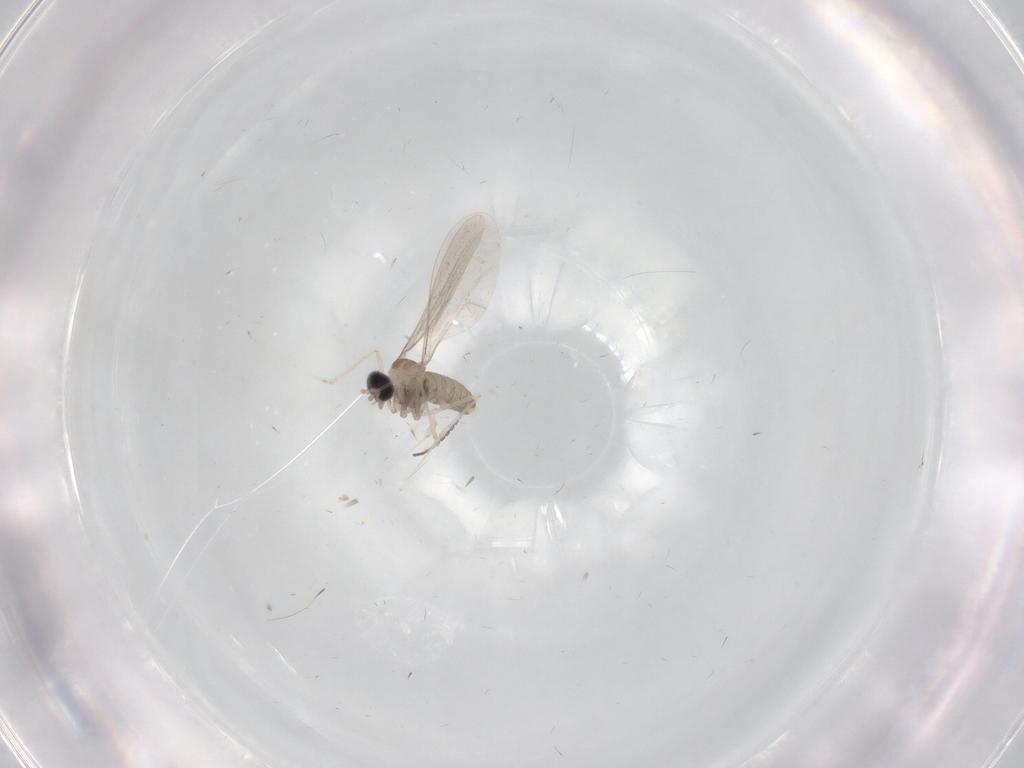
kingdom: Animalia
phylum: Arthropoda
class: Insecta
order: Diptera
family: Cecidomyiidae
